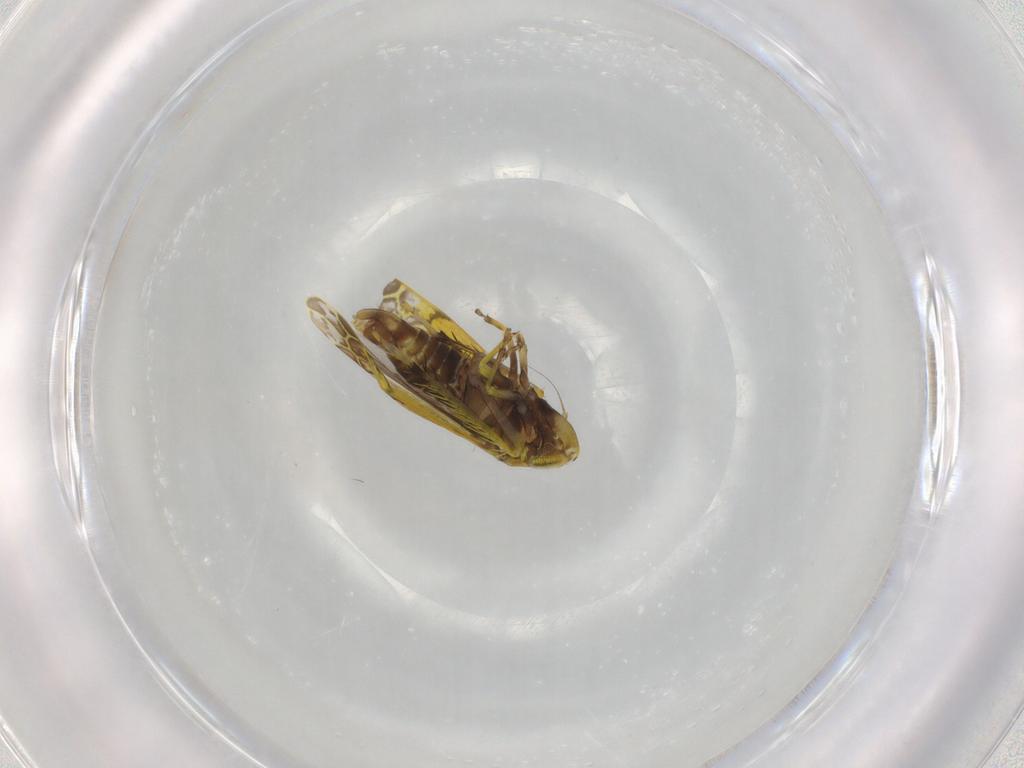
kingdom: Animalia
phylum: Arthropoda
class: Insecta
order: Hemiptera
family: Cicadellidae
